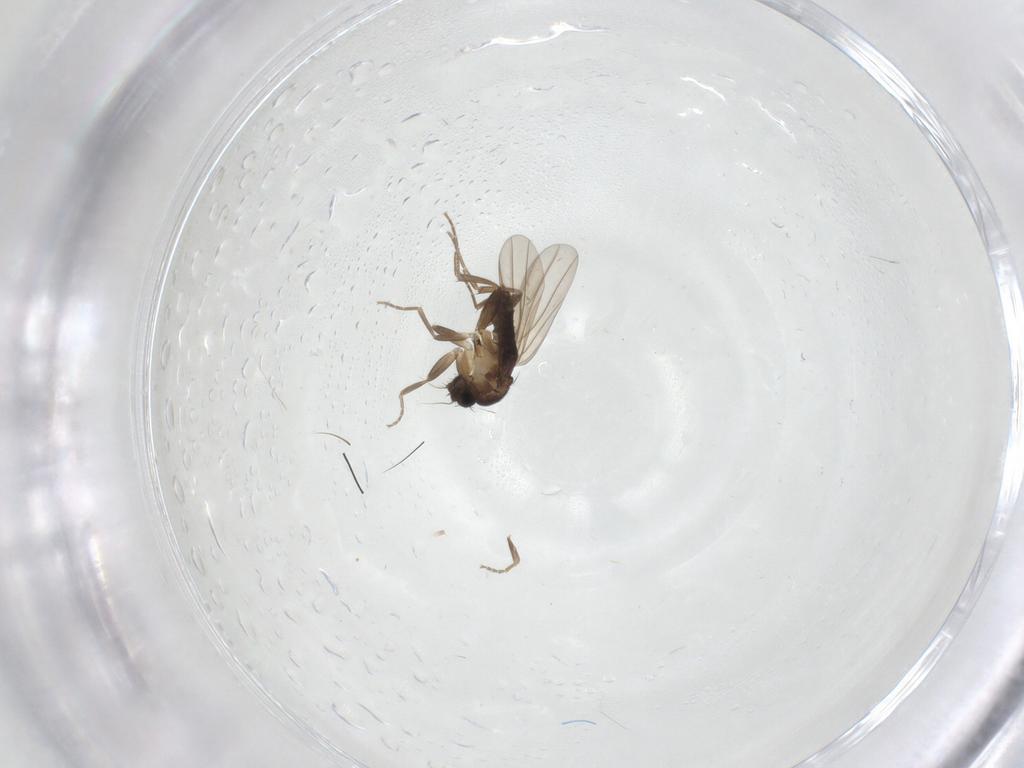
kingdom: Animalia
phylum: Arthropoda
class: Insecta
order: Diptera
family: Phoridae
